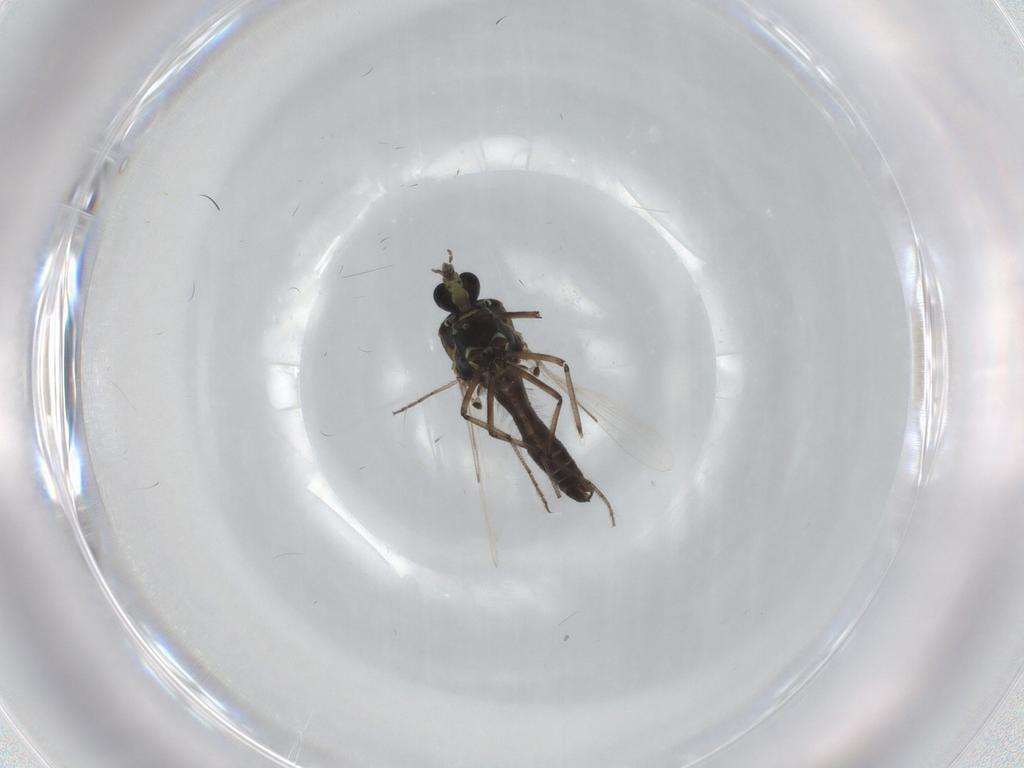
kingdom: Animalia
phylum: Arthropoda
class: Insecta
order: Diptera
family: Ceratopogonidae
